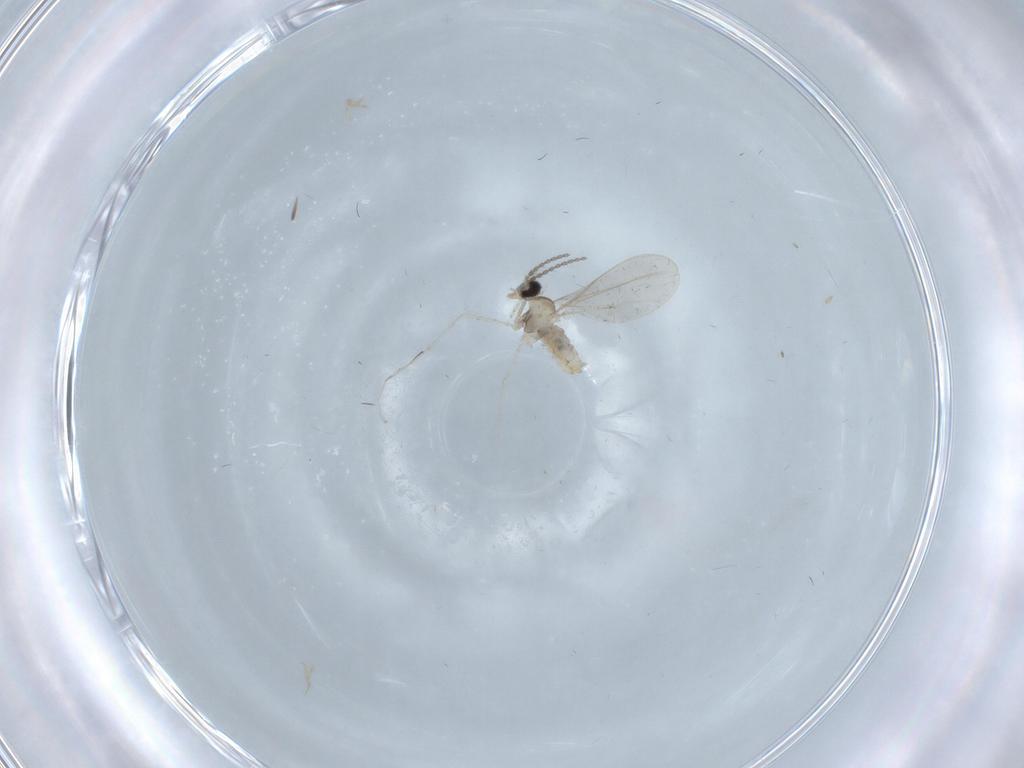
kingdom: Animalia
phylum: Arthropoda
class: Insecta
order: Diptera
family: Cecidomyiidae
